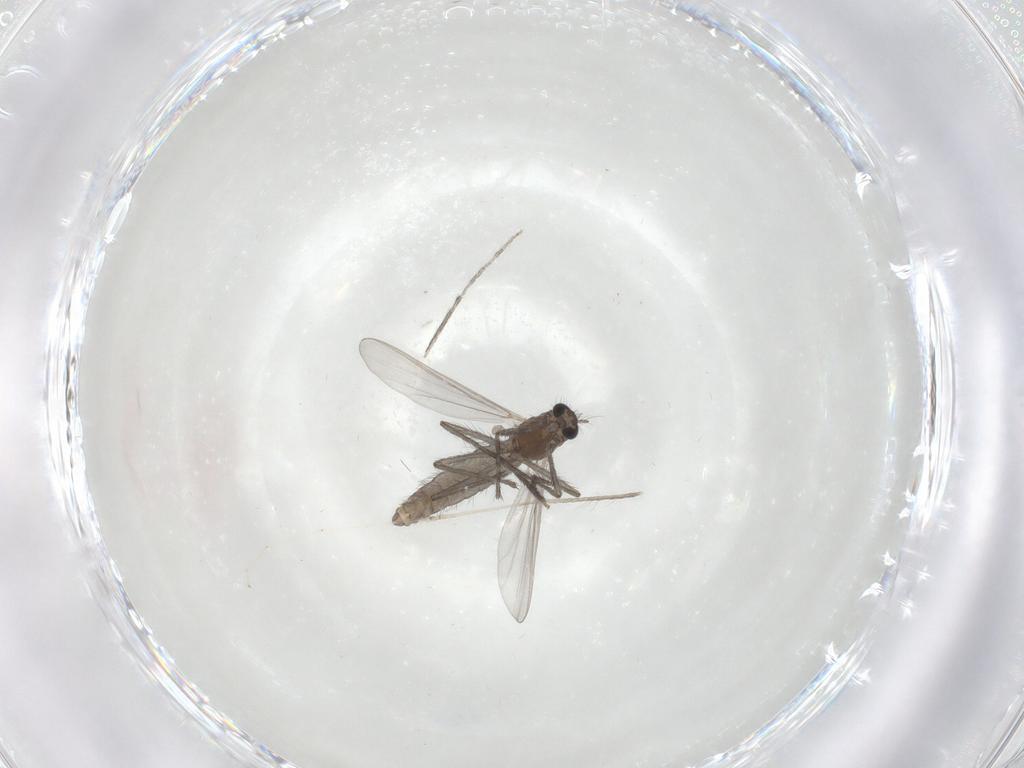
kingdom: Animalia
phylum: Arthropoda
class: Insecta
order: Diptera
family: Chironomidae
